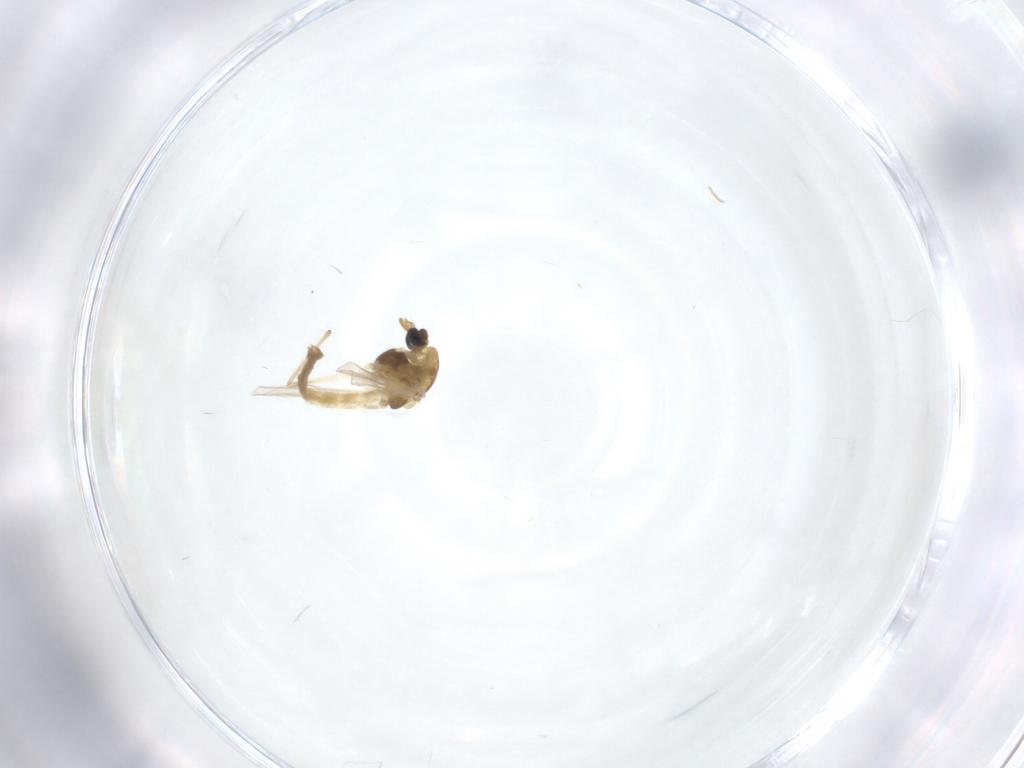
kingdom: Animalia
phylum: Arthropoda
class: Insecta
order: Diptera
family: Chironomidae
